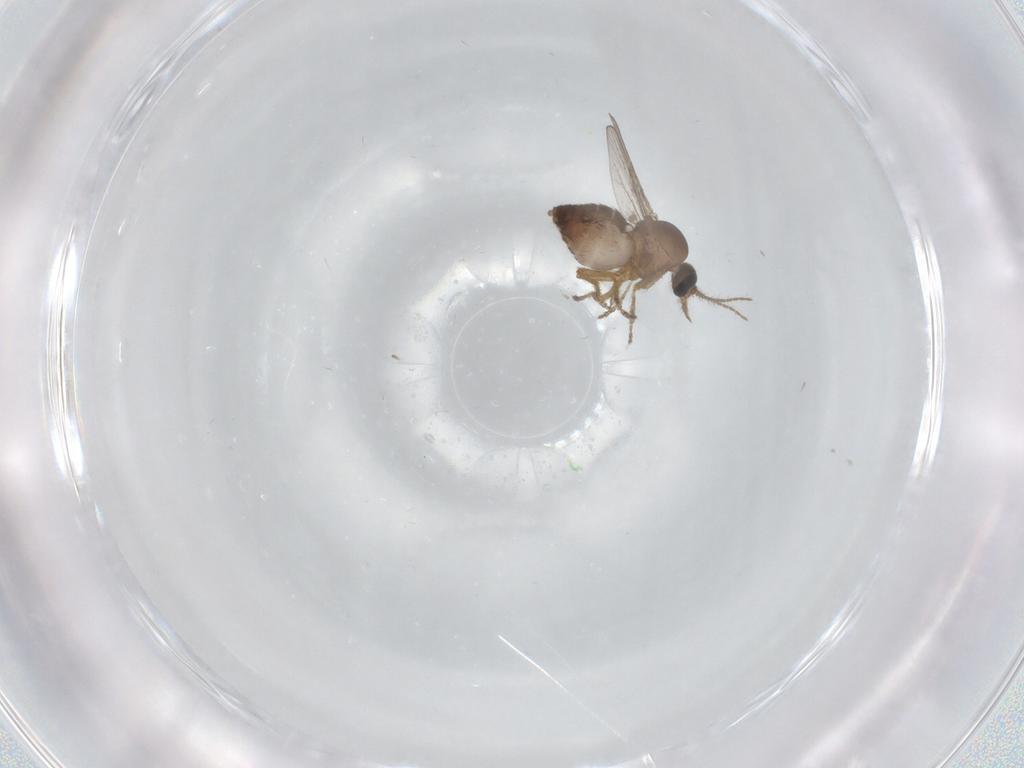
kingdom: Animalia
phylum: Arthropoda
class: Insecta
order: Diptera
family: Ceratopogonidae
